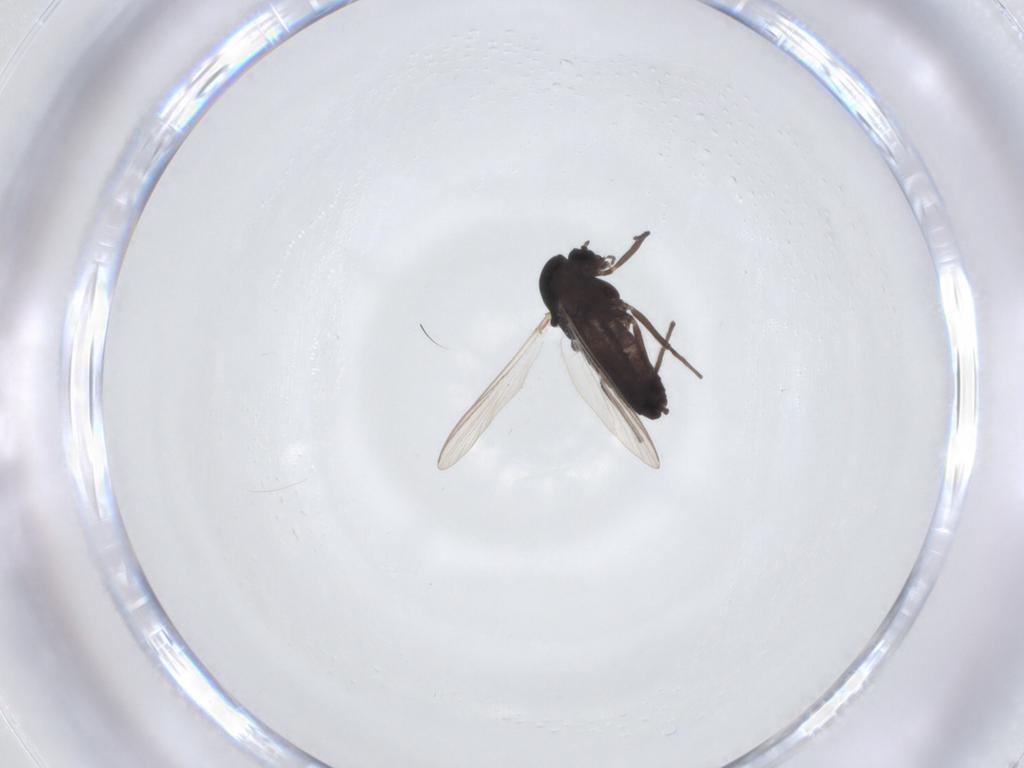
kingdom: Animalia
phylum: Arthropoda
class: Insecta
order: Diptera
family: Chironomidae
